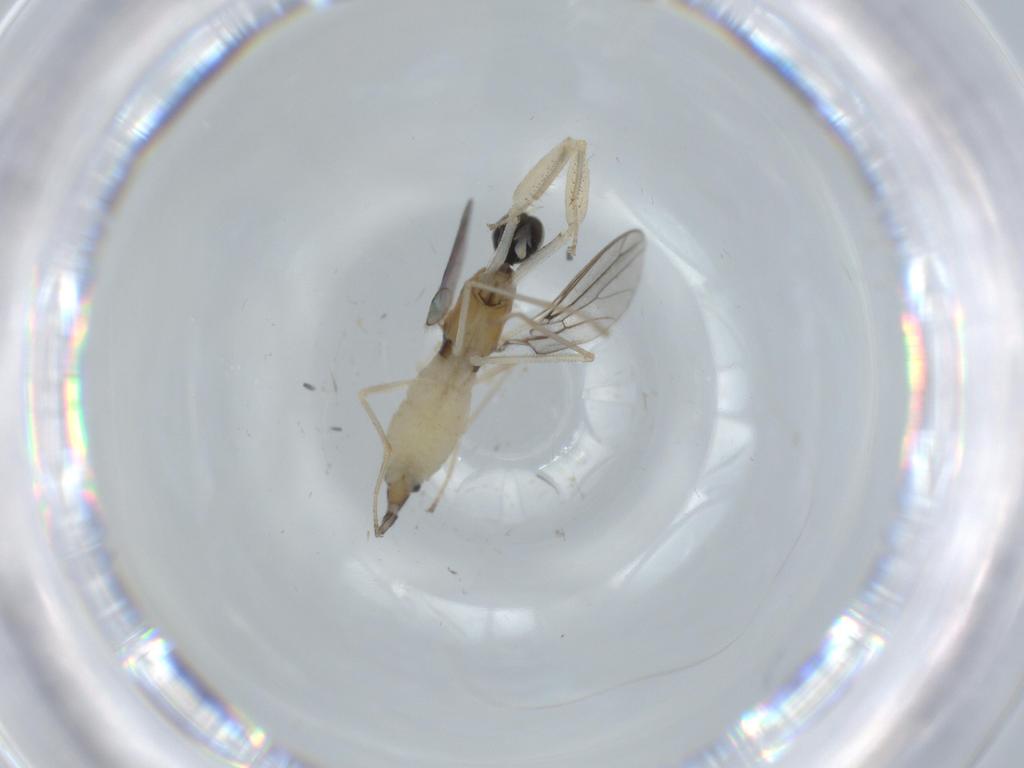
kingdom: Animalia
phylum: Arthropoda
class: Insecta
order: Diptera
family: Empididae
